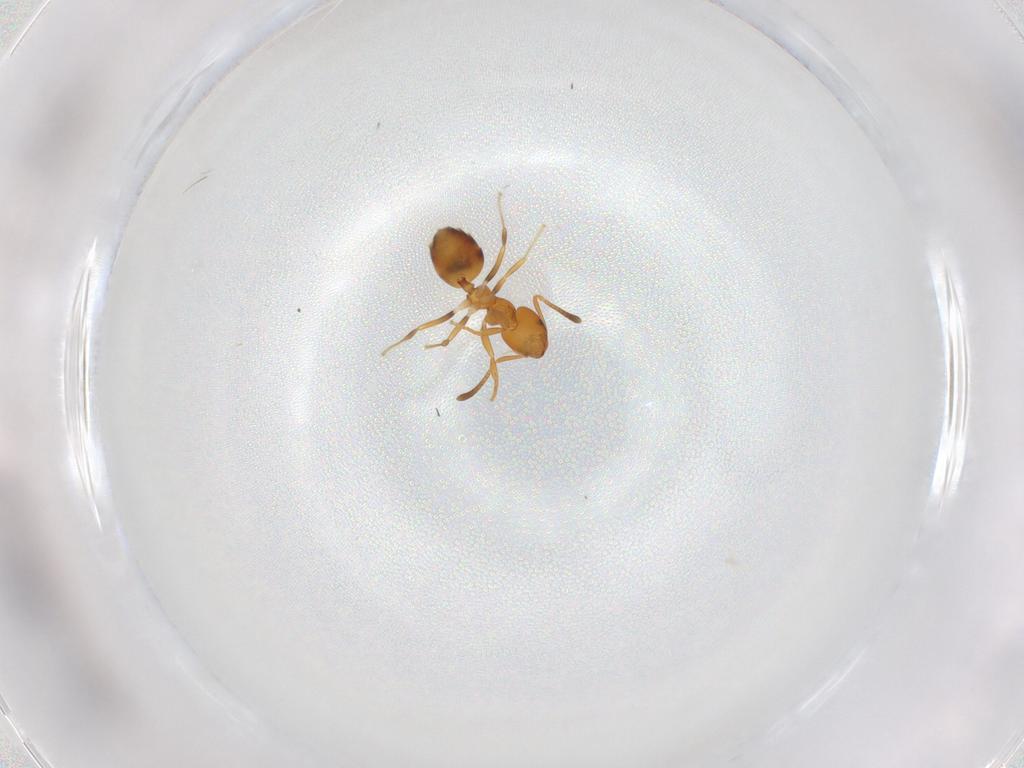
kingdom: Animalia
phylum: Arthropoda
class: Insecta
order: Hymenoptera
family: Formicidae
